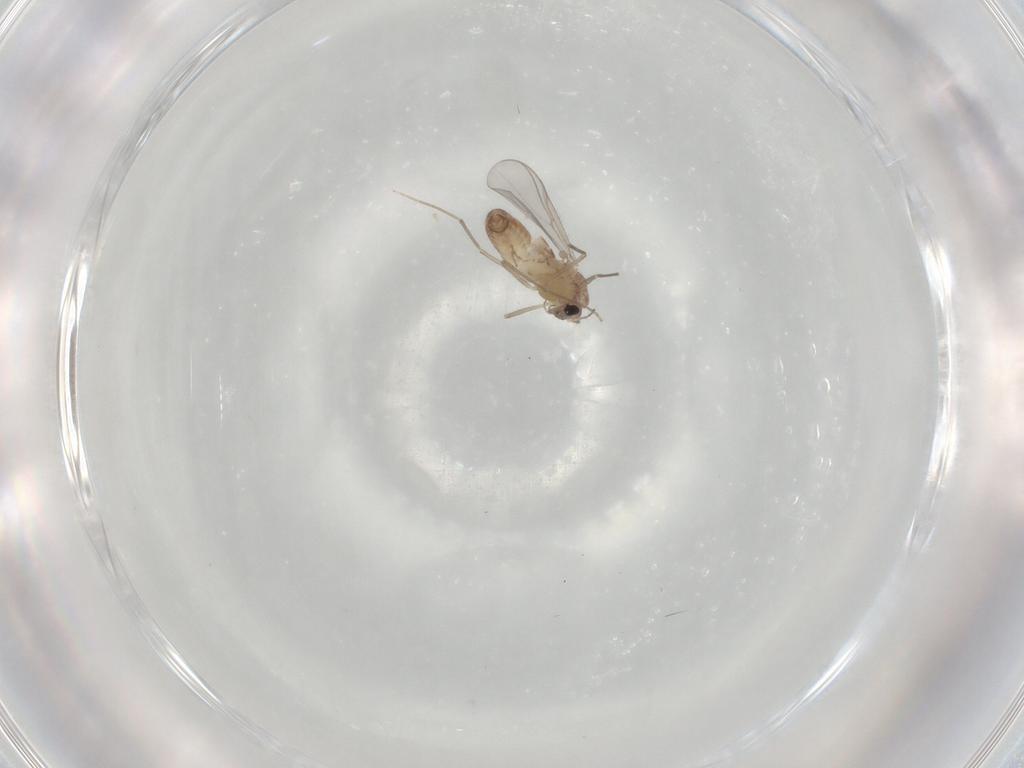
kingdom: Animalia
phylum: Arthropoda
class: Insecta
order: Diptera
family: Chironomidae
